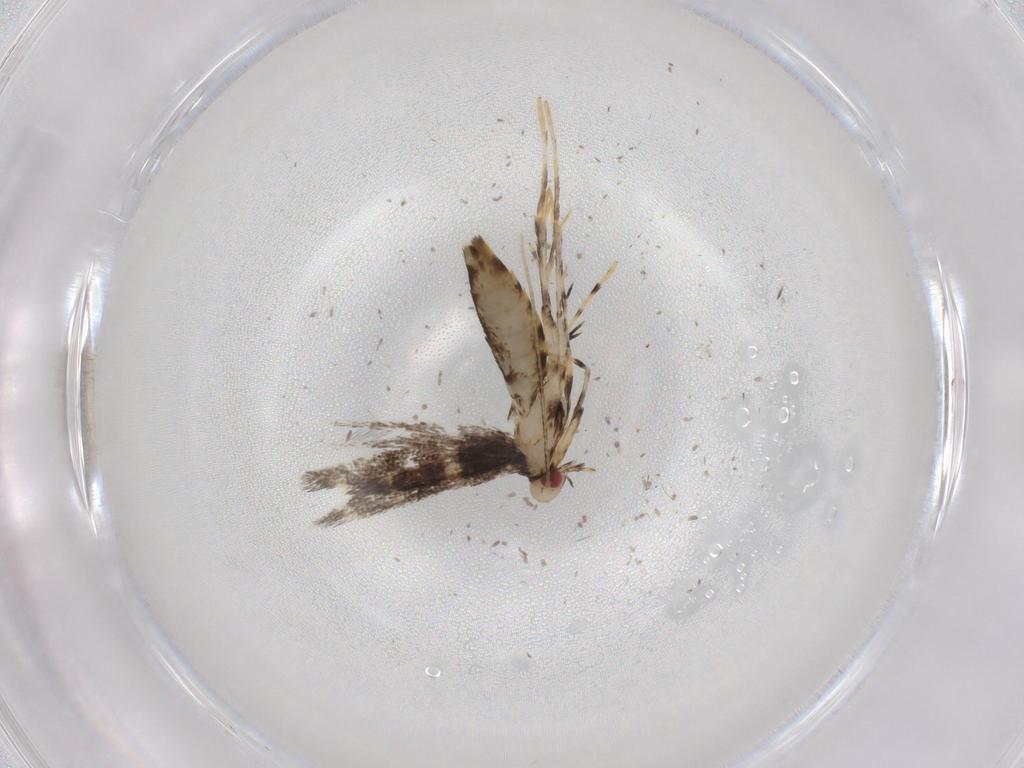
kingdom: Animalia
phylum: Arthropoda
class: Insecta
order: Lepidoptera
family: Gracillariidae
